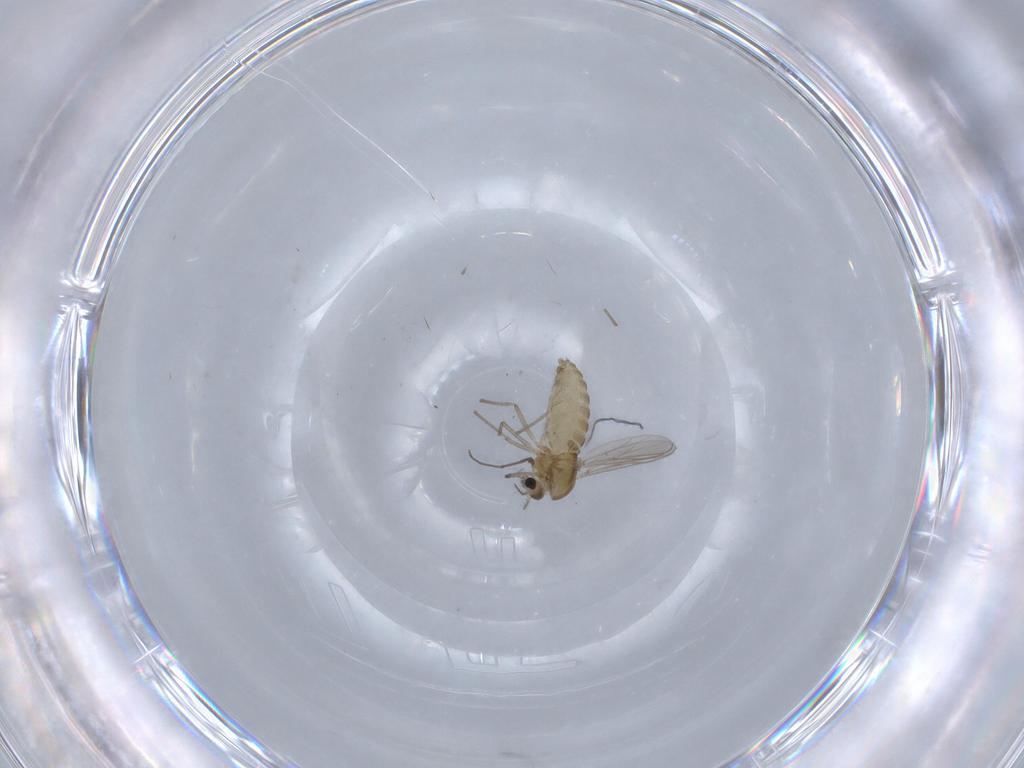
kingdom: Animalia
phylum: Arthropoda
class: Insecta
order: Diptera
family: Chironomidae
